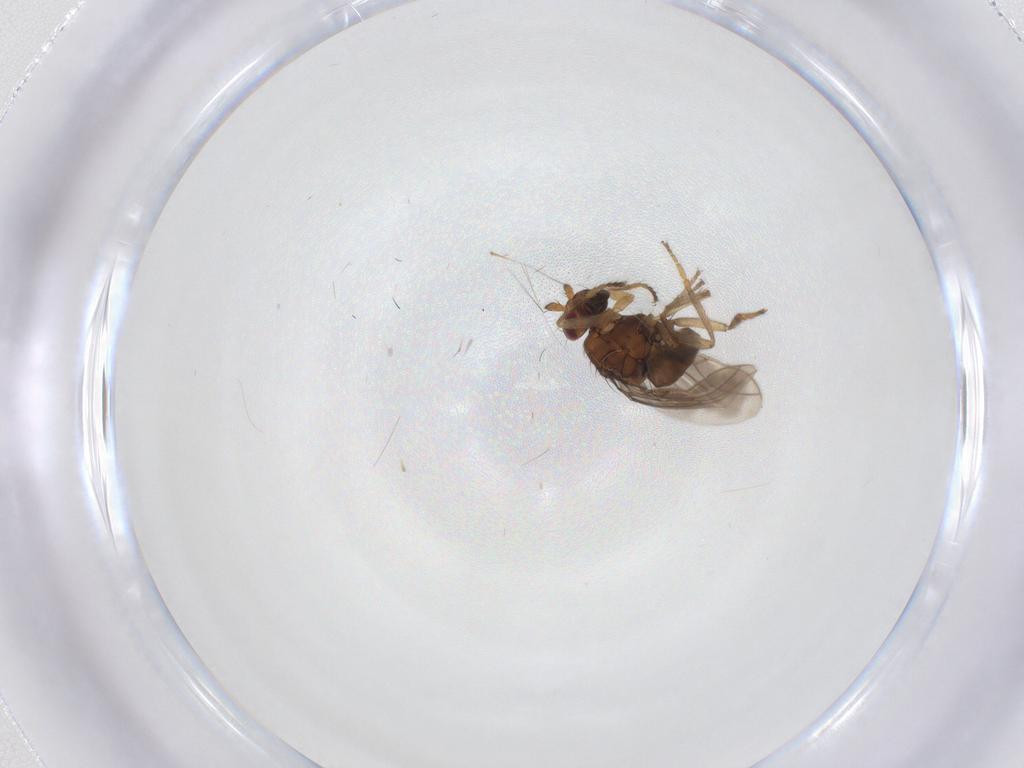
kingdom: Animalia
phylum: Arthropoda
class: Insecta
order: Diptera
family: Sphaeroceridae
